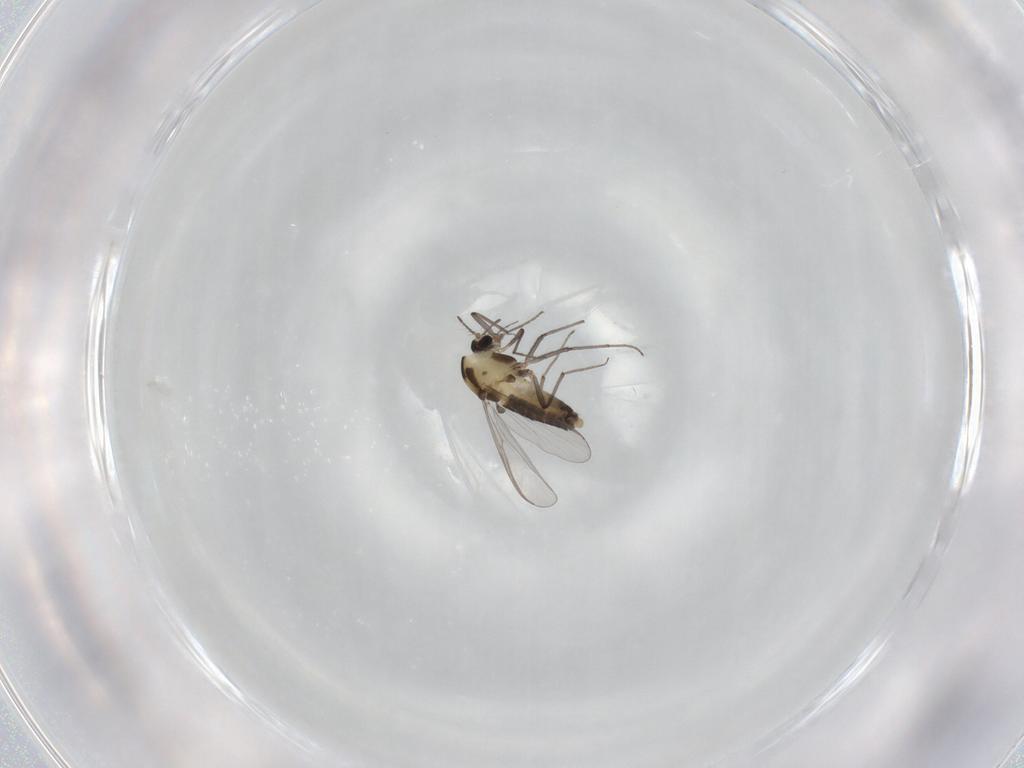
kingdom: Animalia
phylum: Arthropoda
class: Insecta
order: Diptera
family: Chironomidae
